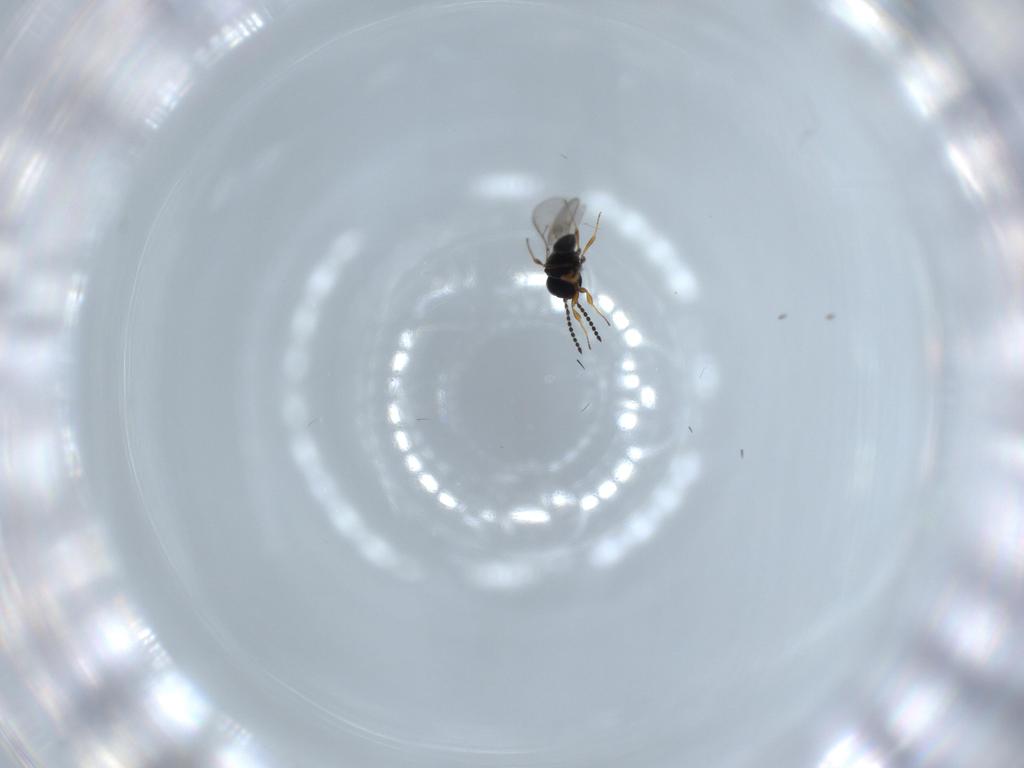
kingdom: Animalia
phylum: Arthropoda
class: Insecta
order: Hymenoptera
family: Scelionidae
